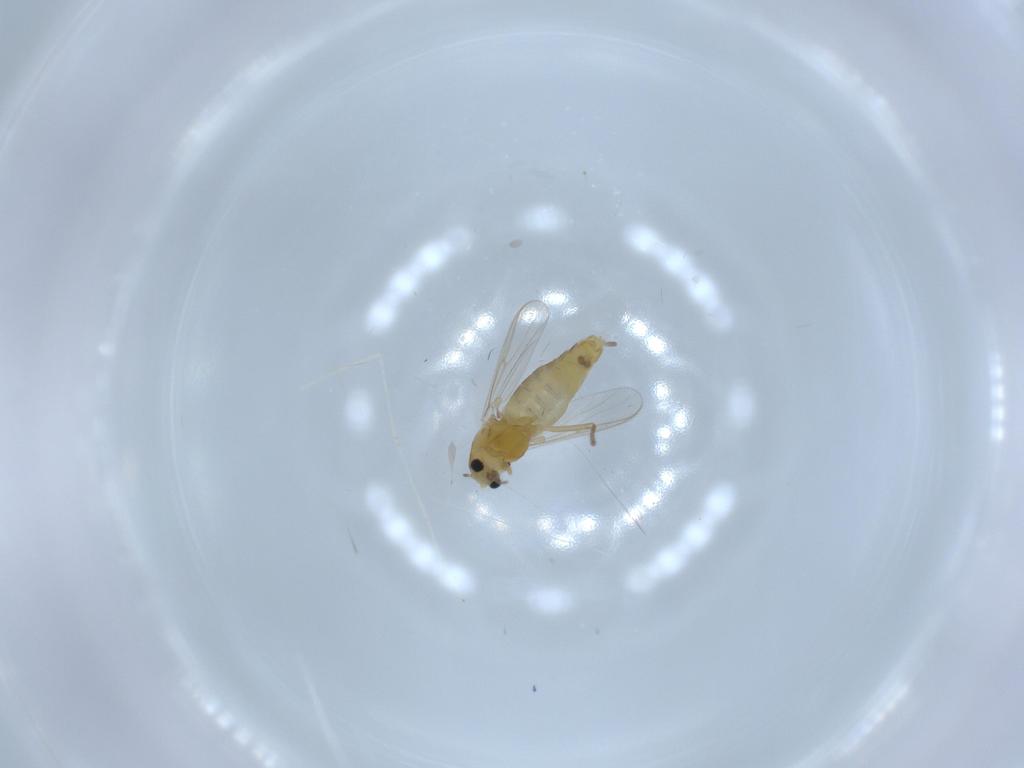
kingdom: Animalia
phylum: Arthropoda
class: Insecta
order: Diptera
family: Chironomidae
